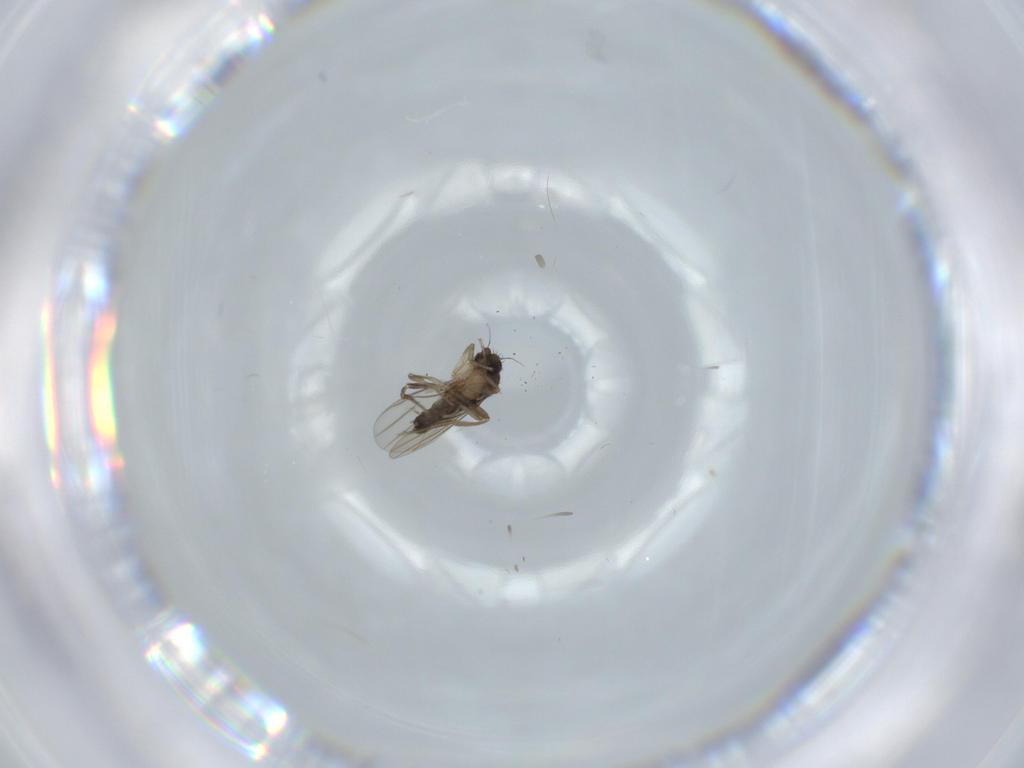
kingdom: Animalia
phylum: Arthropoda
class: Insecta
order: Diptera
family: Phoridae
